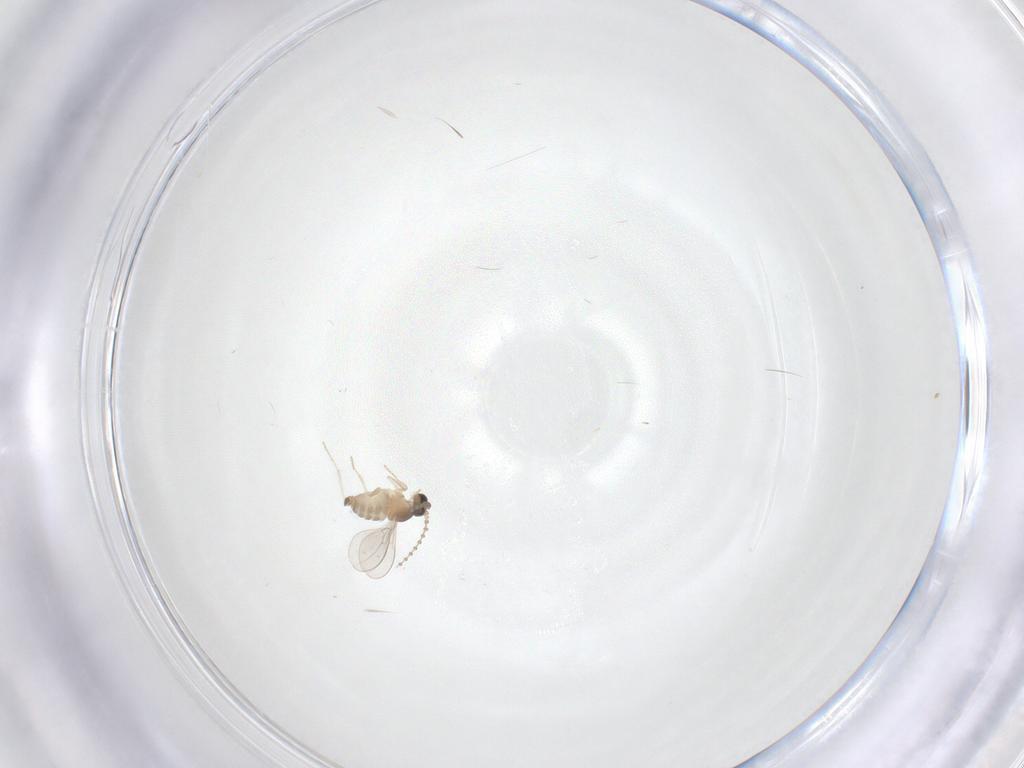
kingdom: Animalia
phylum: Arthropoda
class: Insecta
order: Diptera
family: Cecidomyiidae
